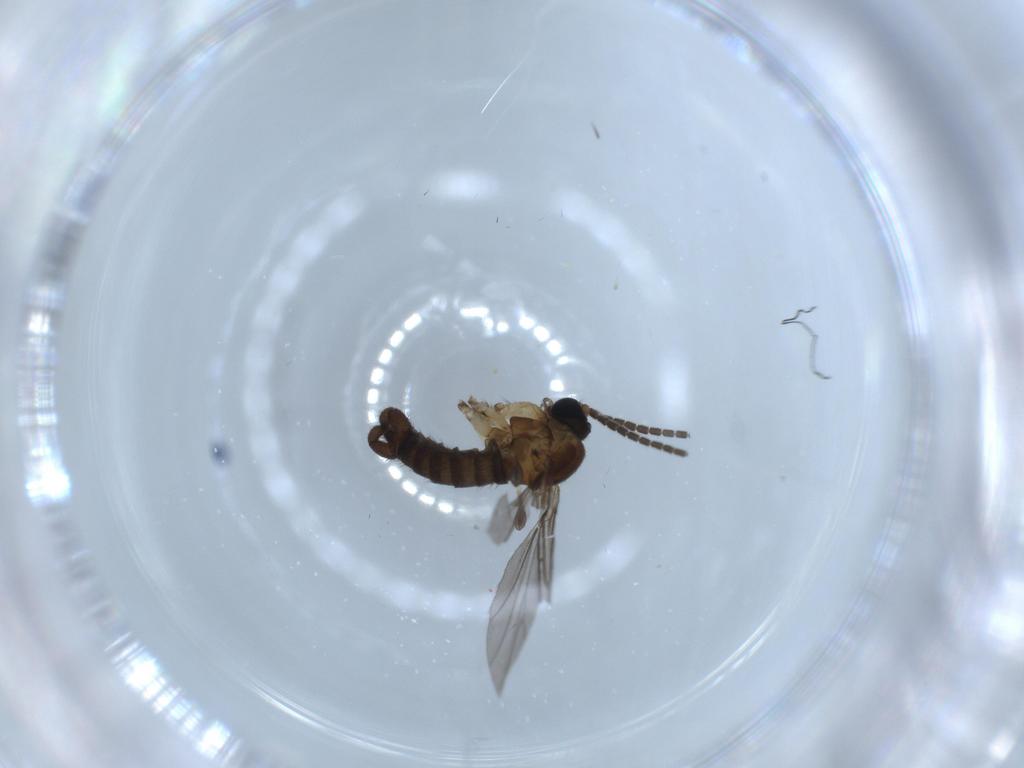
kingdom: Animalia
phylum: Arthropoda
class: Insecta
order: Diptera
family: Sciaridae
